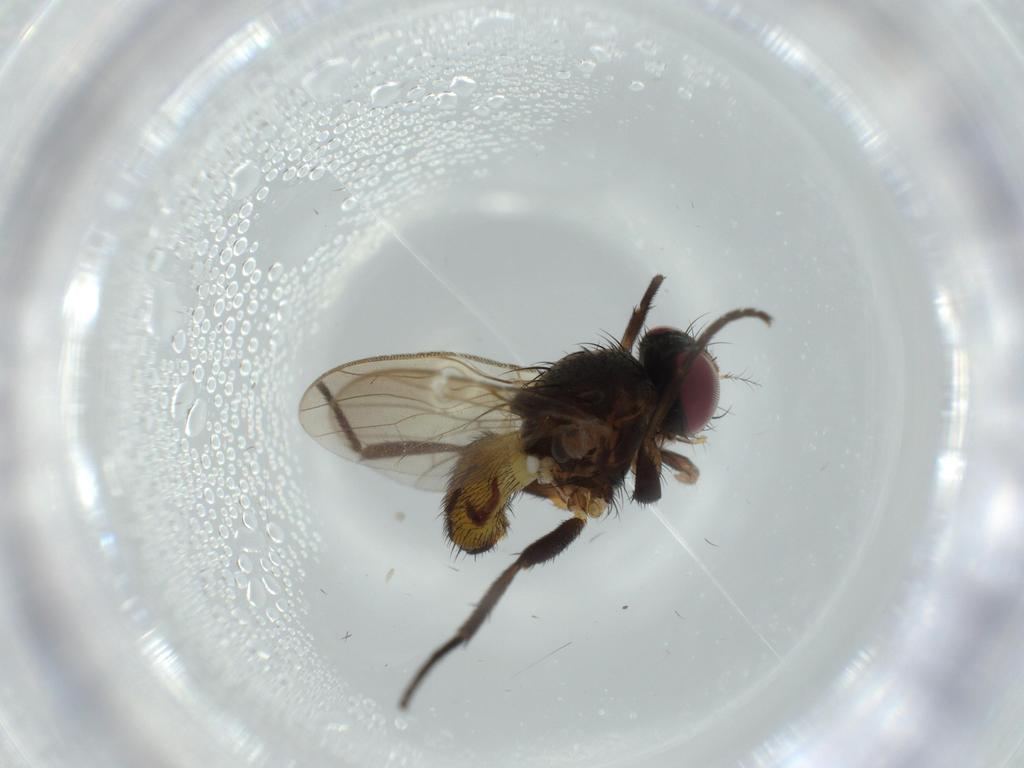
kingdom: Animalia
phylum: Arthropoda
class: Insecta
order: Diptera
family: Anthomyiidae
